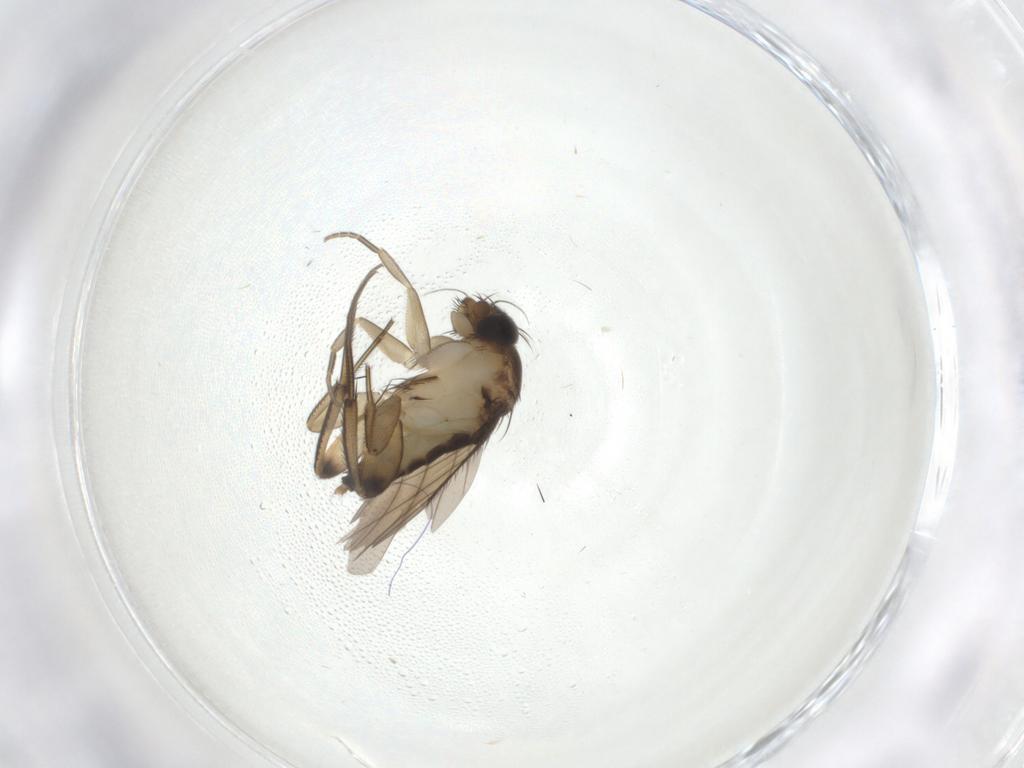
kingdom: Animalia
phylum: Arthropoda
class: Insecta
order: Diptera
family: Phoridae
